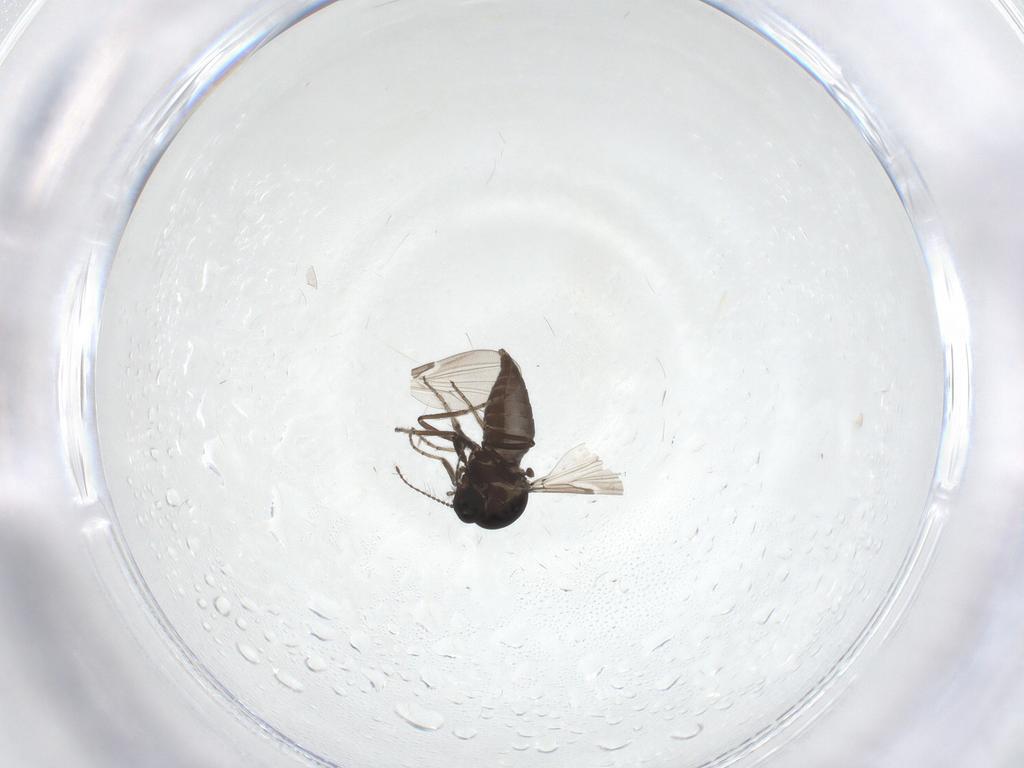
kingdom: Animalia
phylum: Arthropoda
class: Insecta
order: Diptera
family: Ceratopogonidae
